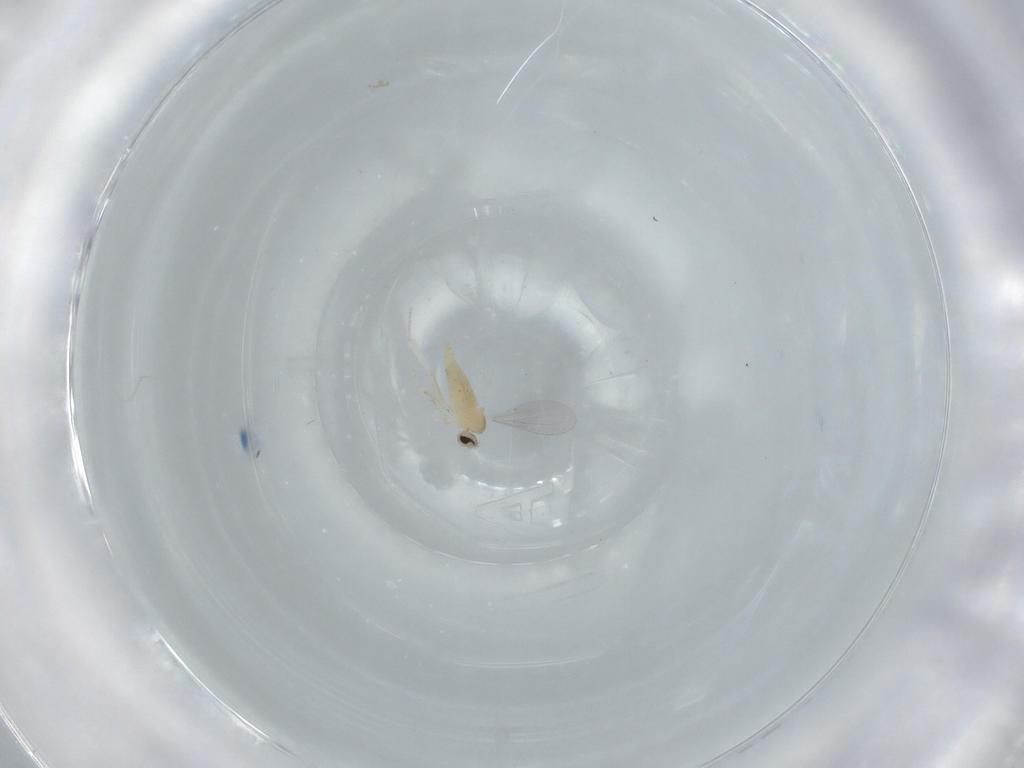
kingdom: Animalia
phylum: Arthropoda
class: Insecta
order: Diptera
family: Cecidomyiidae
